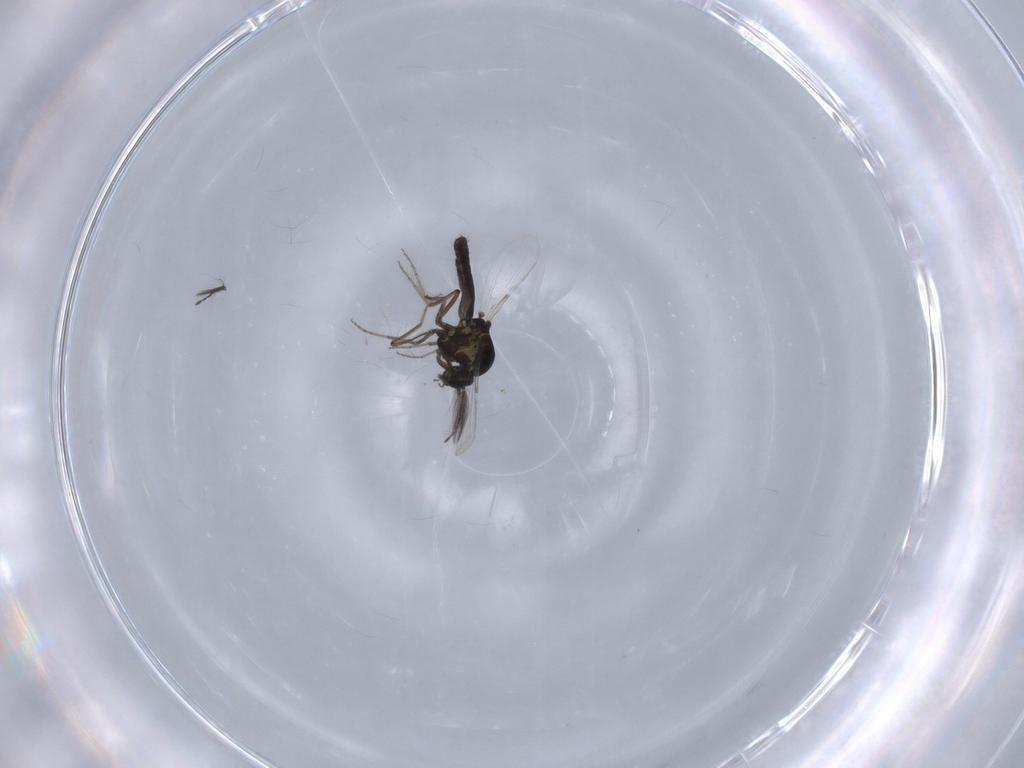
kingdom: Animalia
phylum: Arthropoda
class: Insecta
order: Diptera
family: Ceratopogonidae
